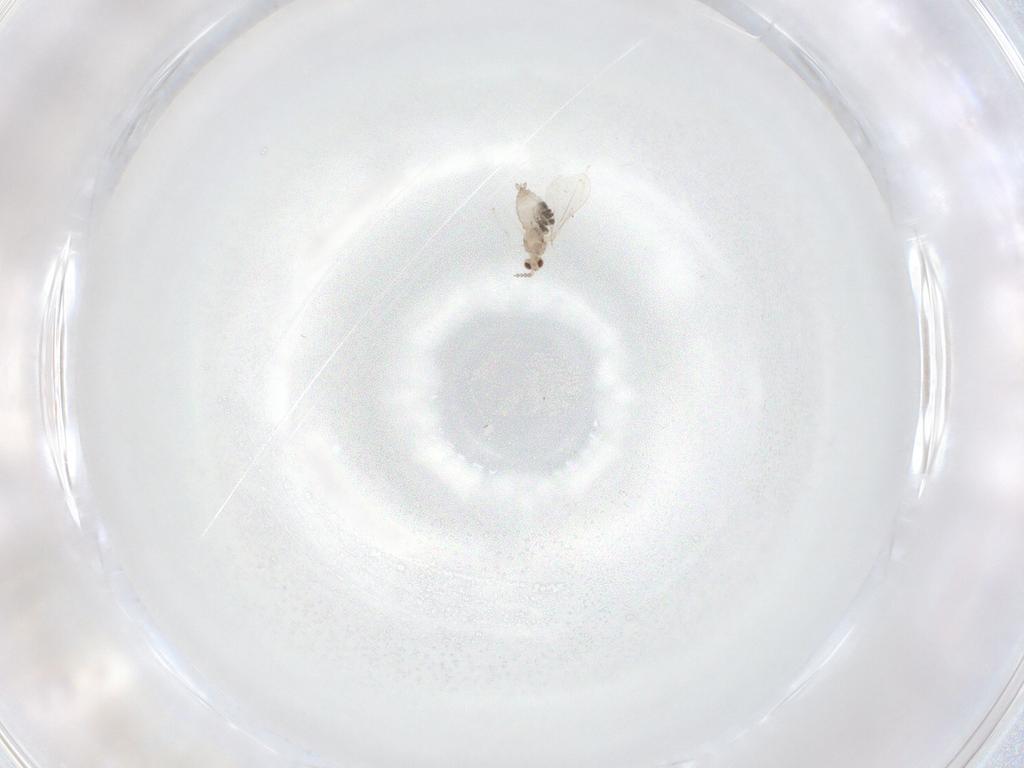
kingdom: Animalia
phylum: Arthropoda
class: Insecta
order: Diptera
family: Cecidomyiidae
